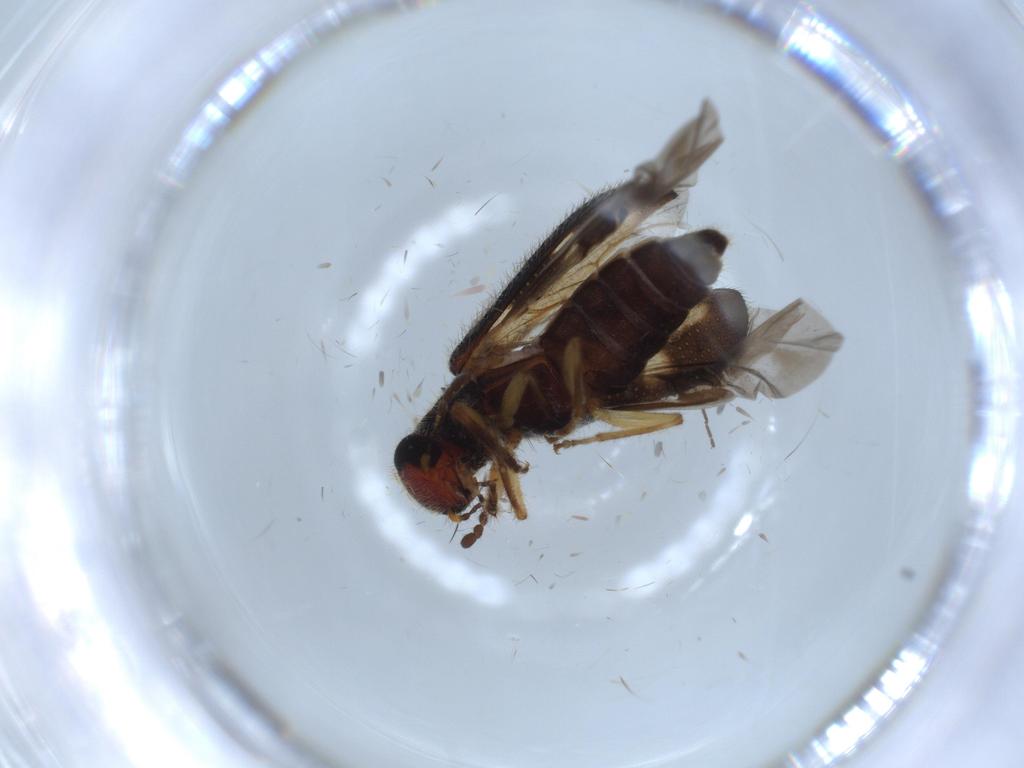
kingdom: Animalia
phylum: Arthropoda
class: Insecta
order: Coleoptera
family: Cleridae
